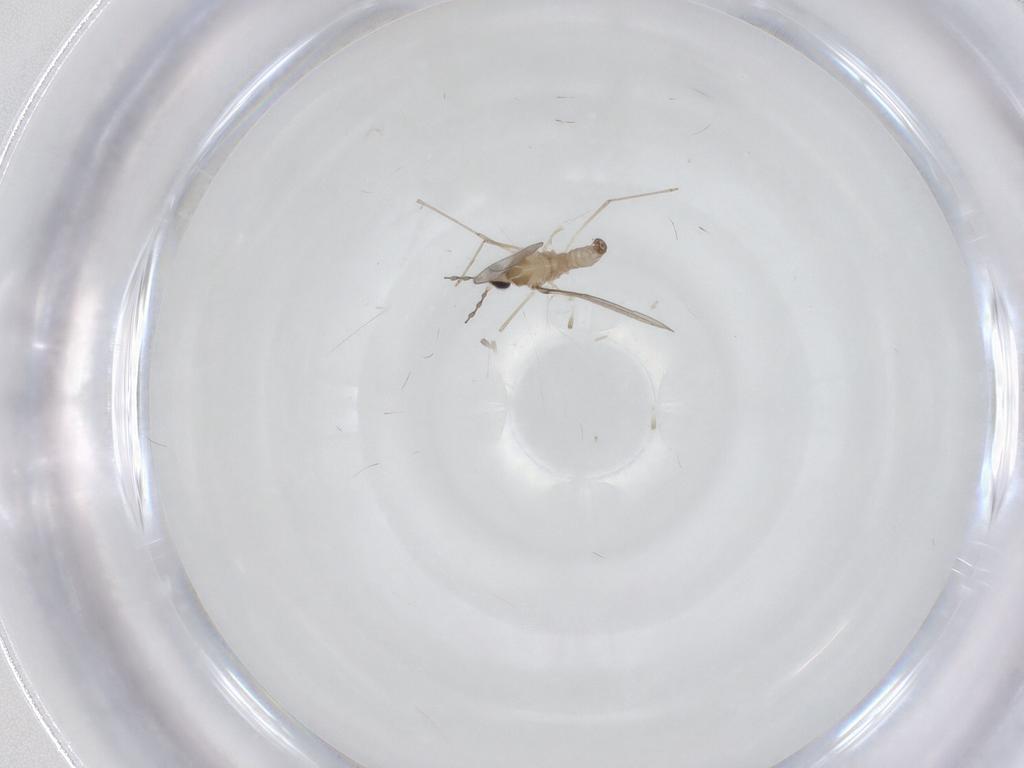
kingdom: Animalia
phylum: Arthropoda
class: Insecta
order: Diptera
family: Cecidomyiidae
